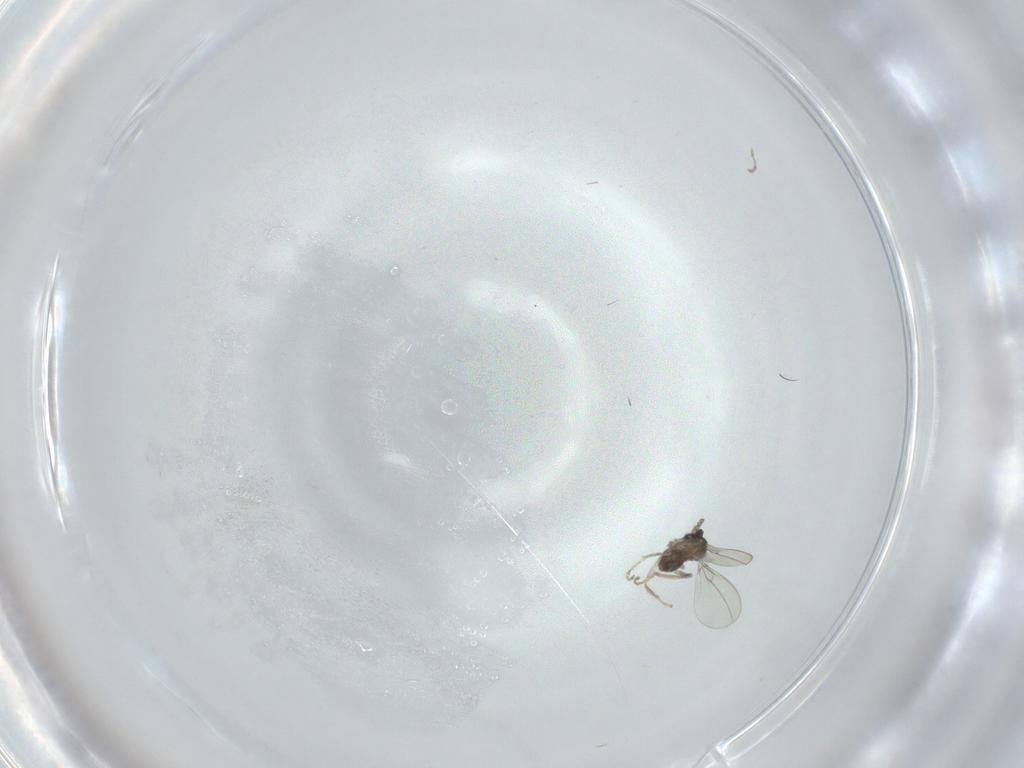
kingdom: Animalia
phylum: Arthropoda
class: Insecta
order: Diptera
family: Cecidomyiidae
